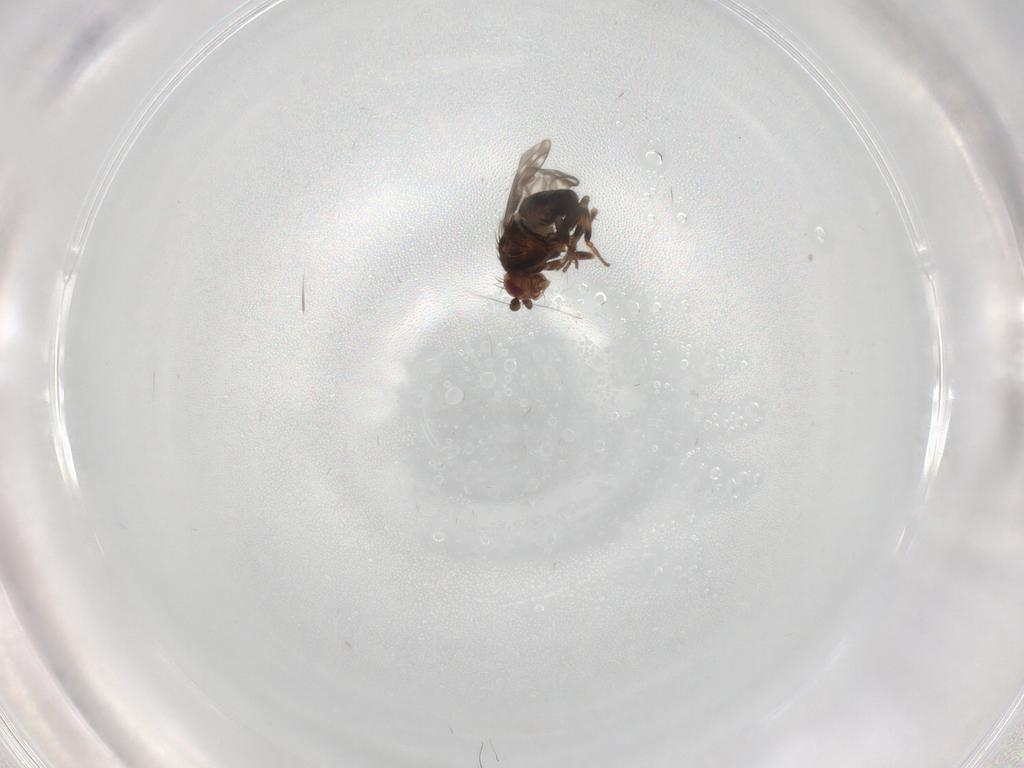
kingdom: Animalia
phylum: Arthropoda
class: Insecta
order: Diptera
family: Psychodidae
